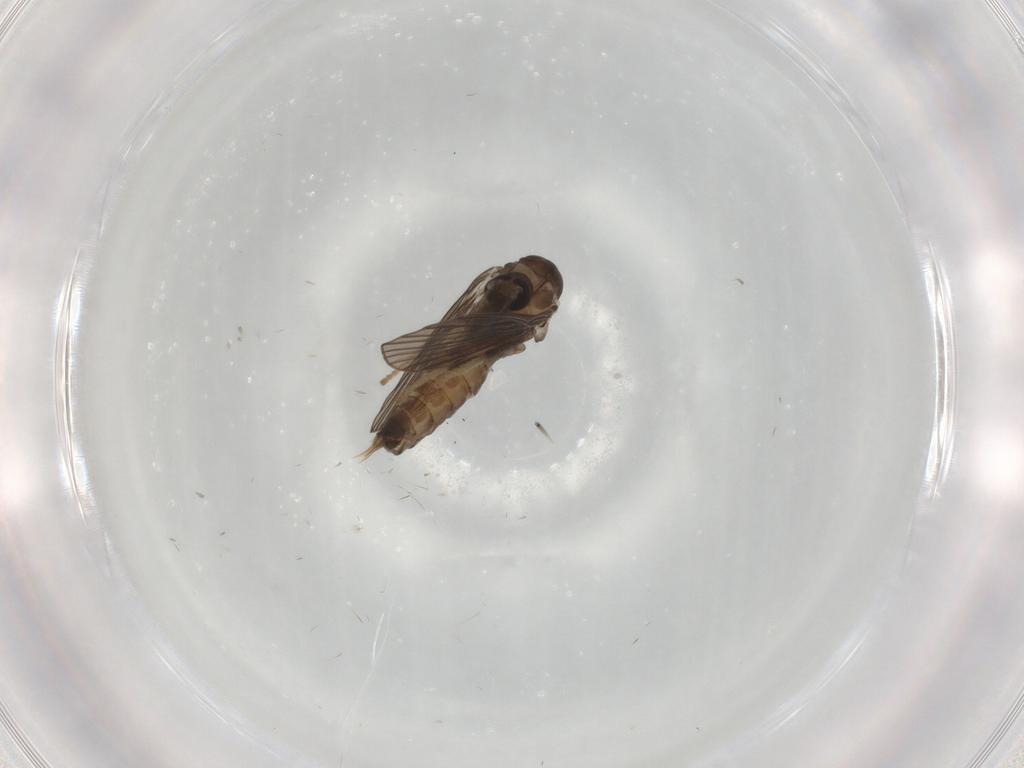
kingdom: Animalia
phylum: Arthropoda
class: Insecta
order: Diptera
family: Psychodidae
